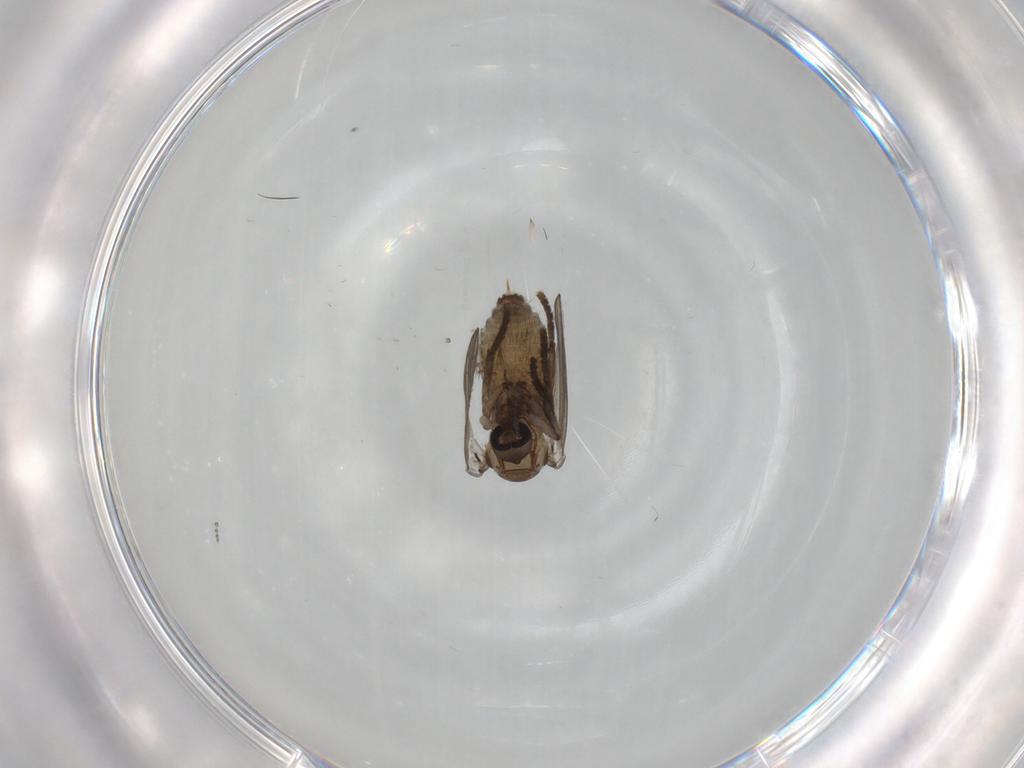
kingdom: Animalia
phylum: Arthropoda
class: Insecta
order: Diptera
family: Psychodidae
